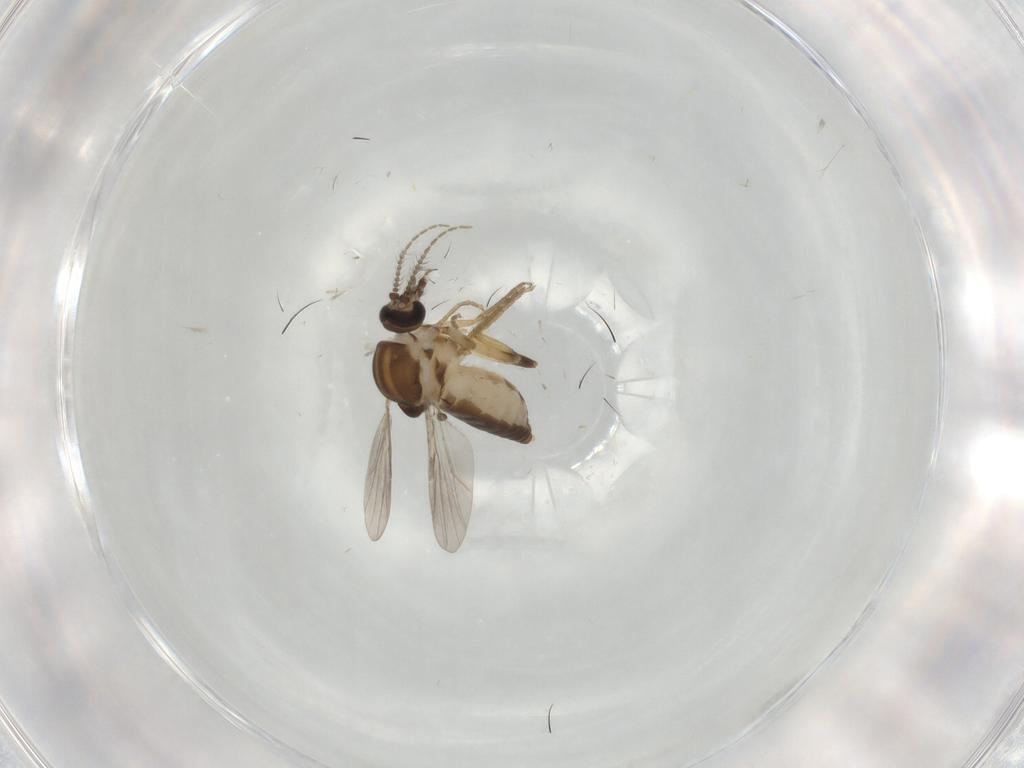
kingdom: Animalia
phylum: Arthropoda
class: Insecta
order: Diptera
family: Ceratopogonidae
